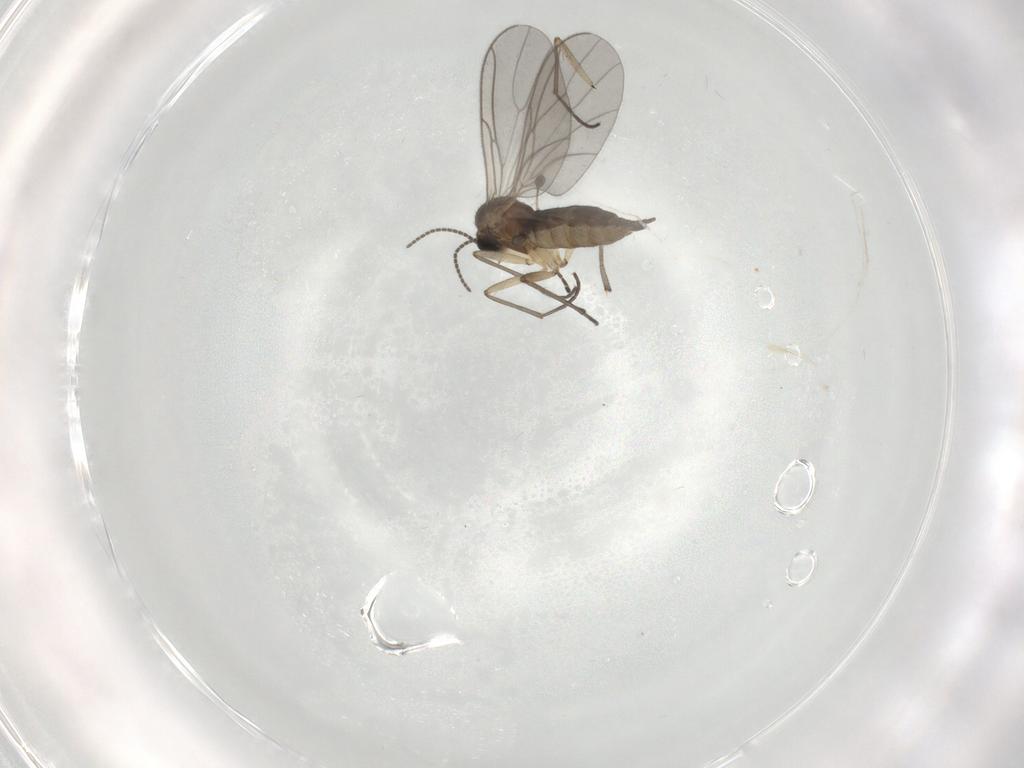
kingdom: Animalia
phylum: Arthropoda
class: Insecta
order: Diptera
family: Sciaridae
